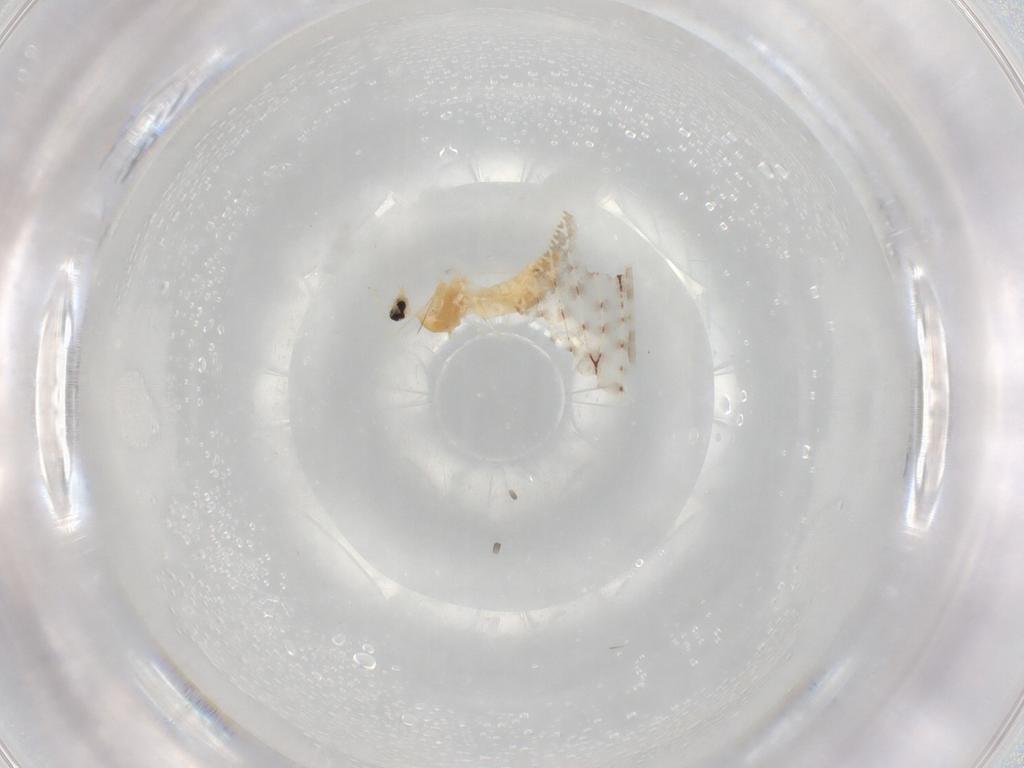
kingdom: Animalia
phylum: Arthropoda
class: Insecta
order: Diptera
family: Cecidomyiidae
